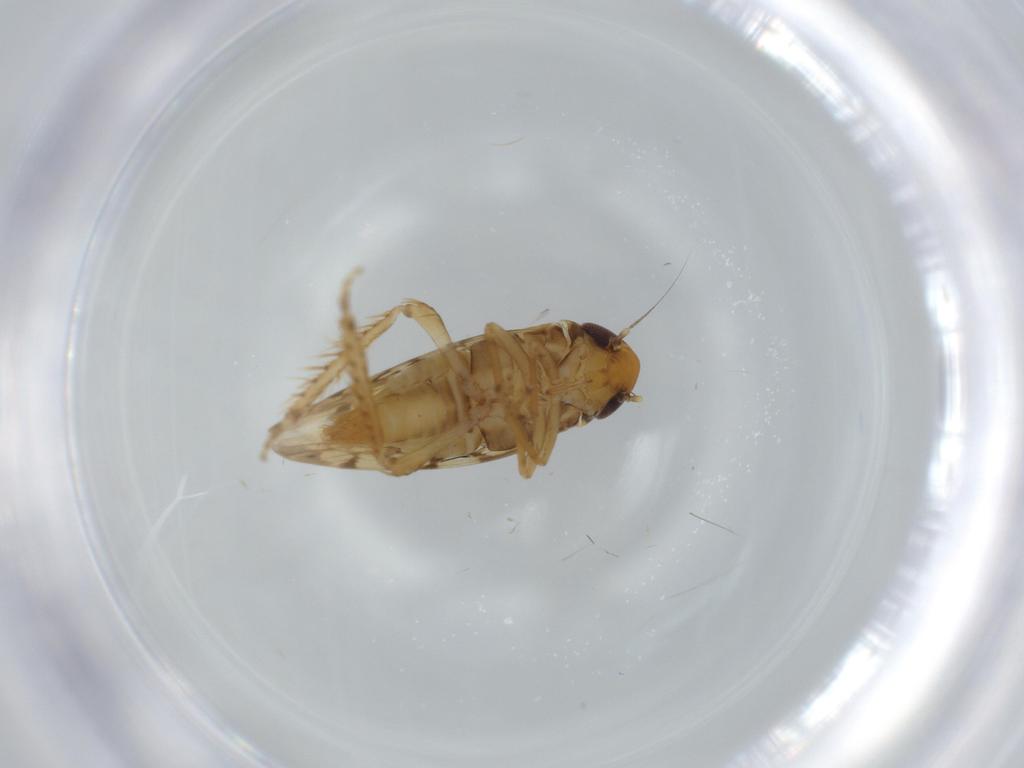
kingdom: Animalia
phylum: Arthropoda
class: Insecta
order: Hemiptera
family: Cicadellidae
